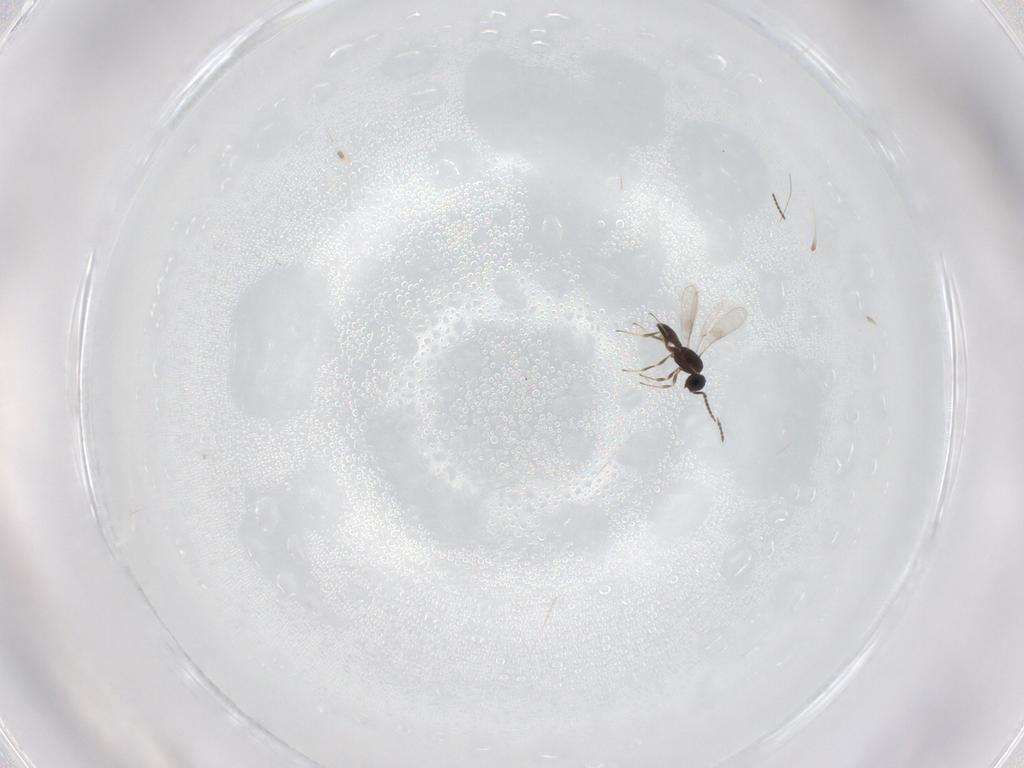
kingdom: Animalia
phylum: Arthropoda
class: Insecta
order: Hymenoptera
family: Scelionidae
